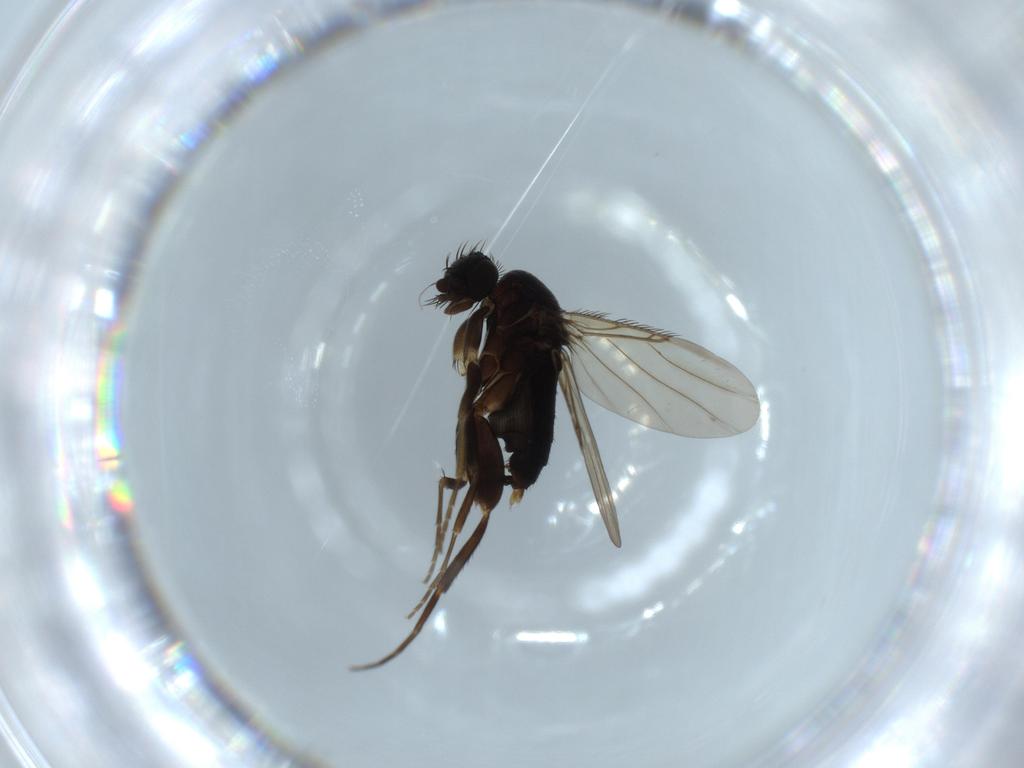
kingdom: Animalia
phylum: Arthropoda
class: Insecta
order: Diptera
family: Phoridae
